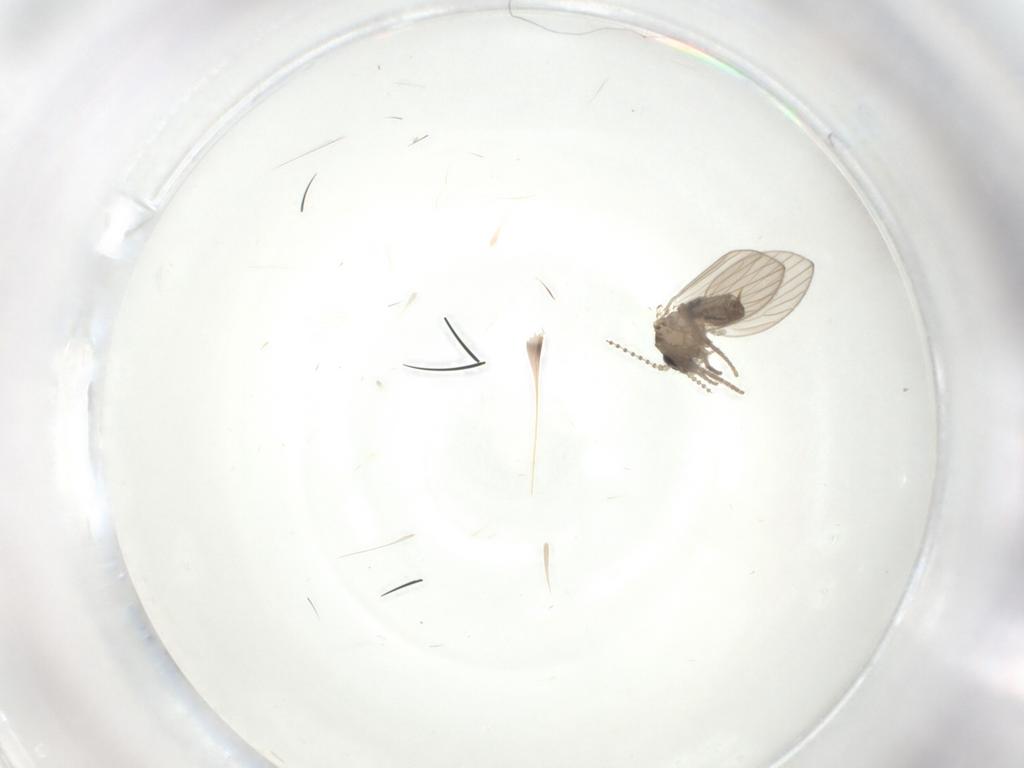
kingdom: Animalia
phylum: Arthropoda
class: Insecta
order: Diptera
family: Psychodidae
